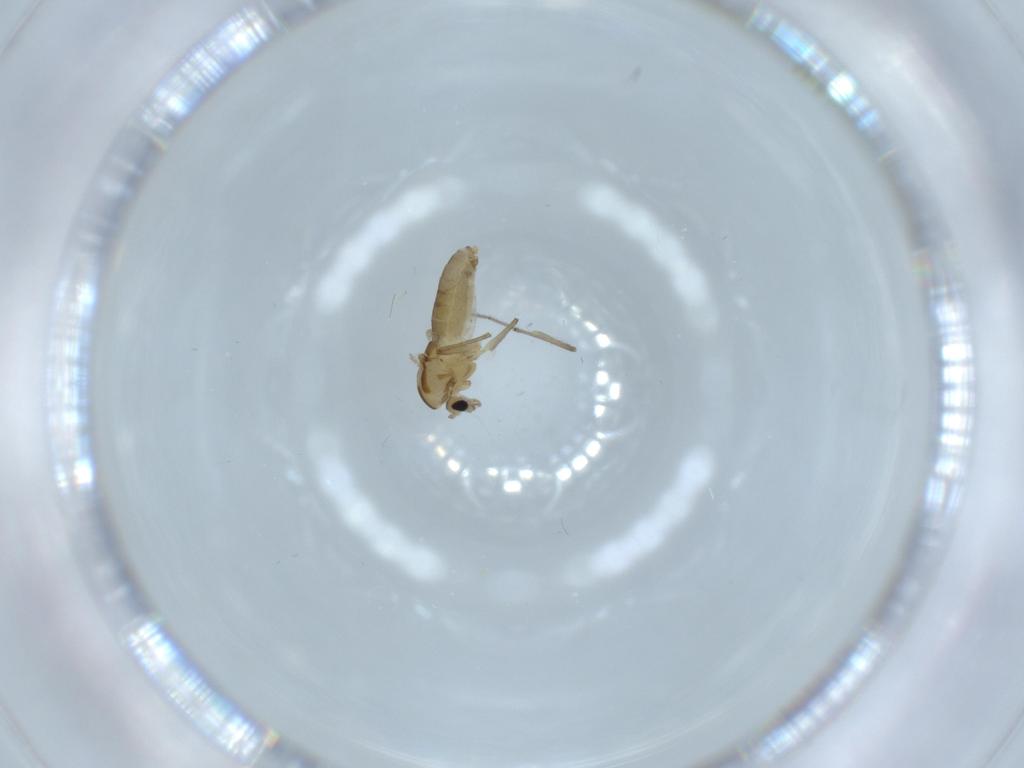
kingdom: Animalia
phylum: Arthropoda
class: Insecta
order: Diptera
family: Chironomidae
